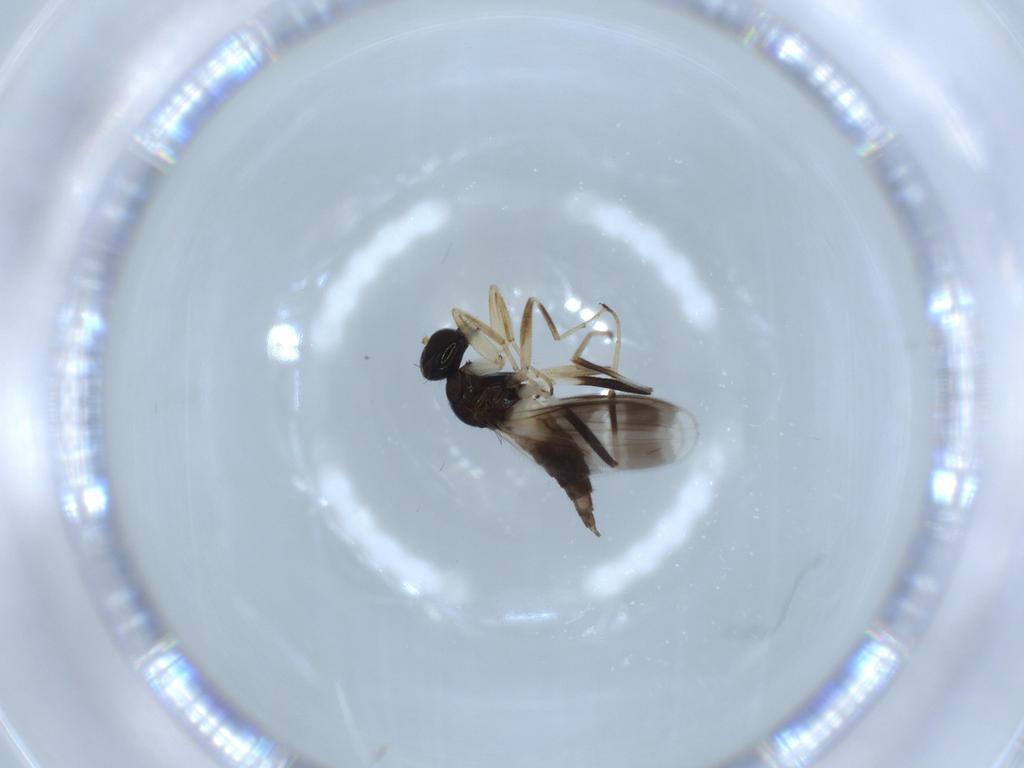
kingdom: Animalia
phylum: Arthropoda
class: Insecta
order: Diptera
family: Hybotidae
